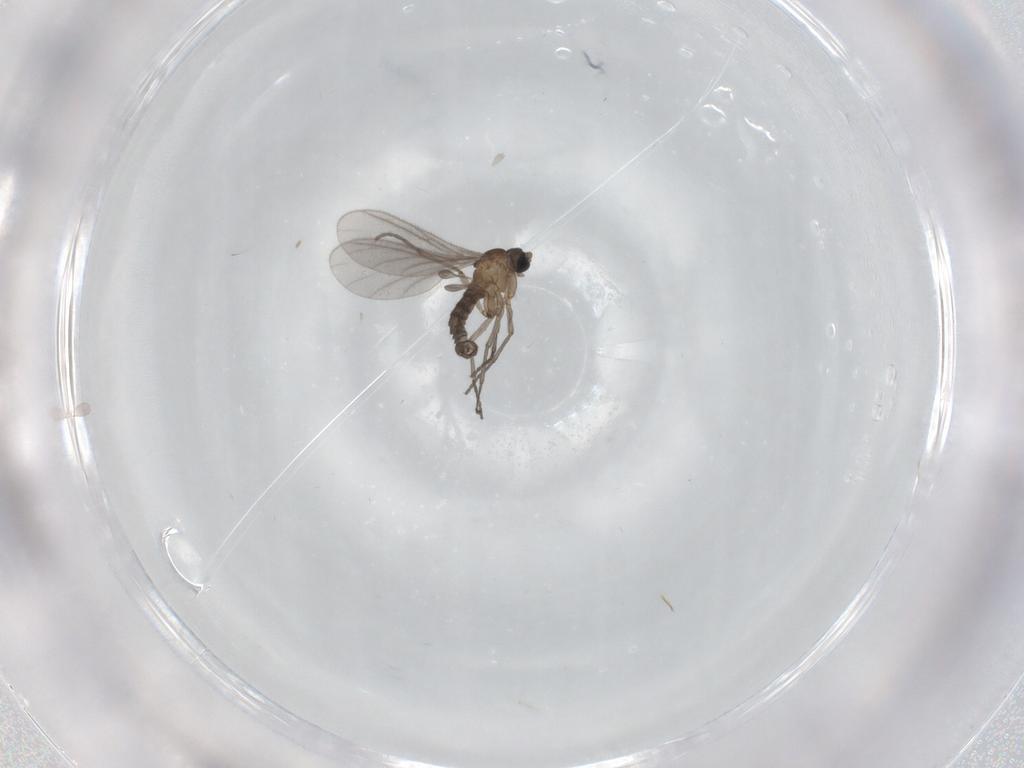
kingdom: Animalia
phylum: Arthropoda
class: Insecta
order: Diptera
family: Sciaridae
